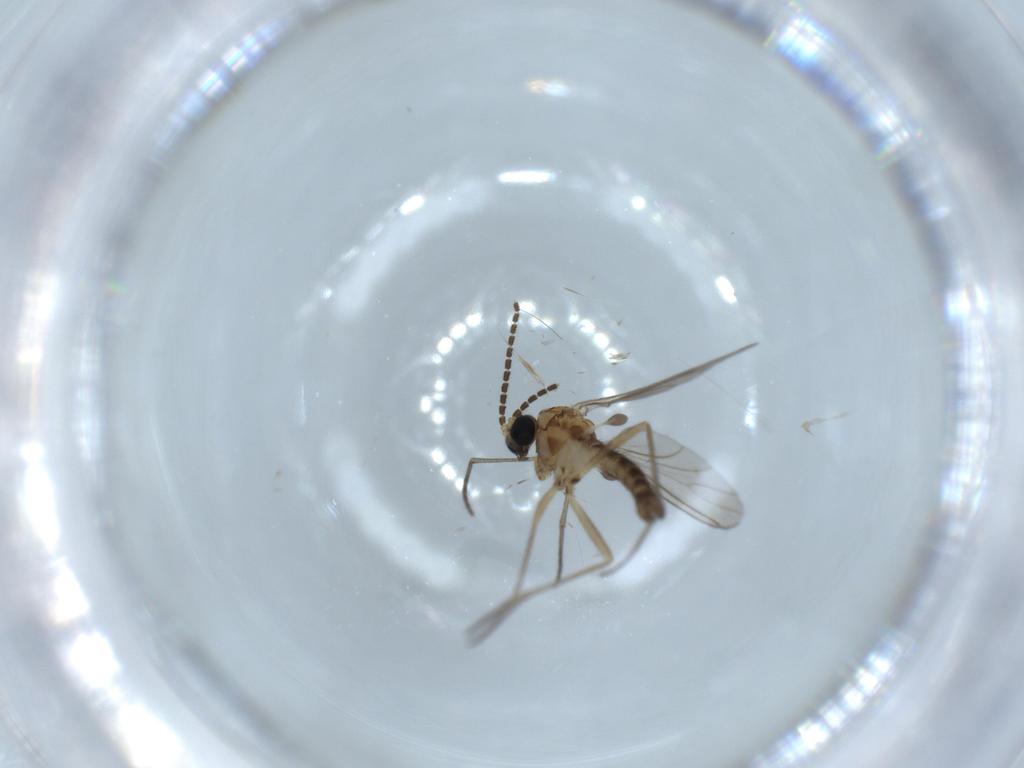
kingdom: Animalia
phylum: Arthropoda
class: Insecta
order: Diptera
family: Sciaridae
